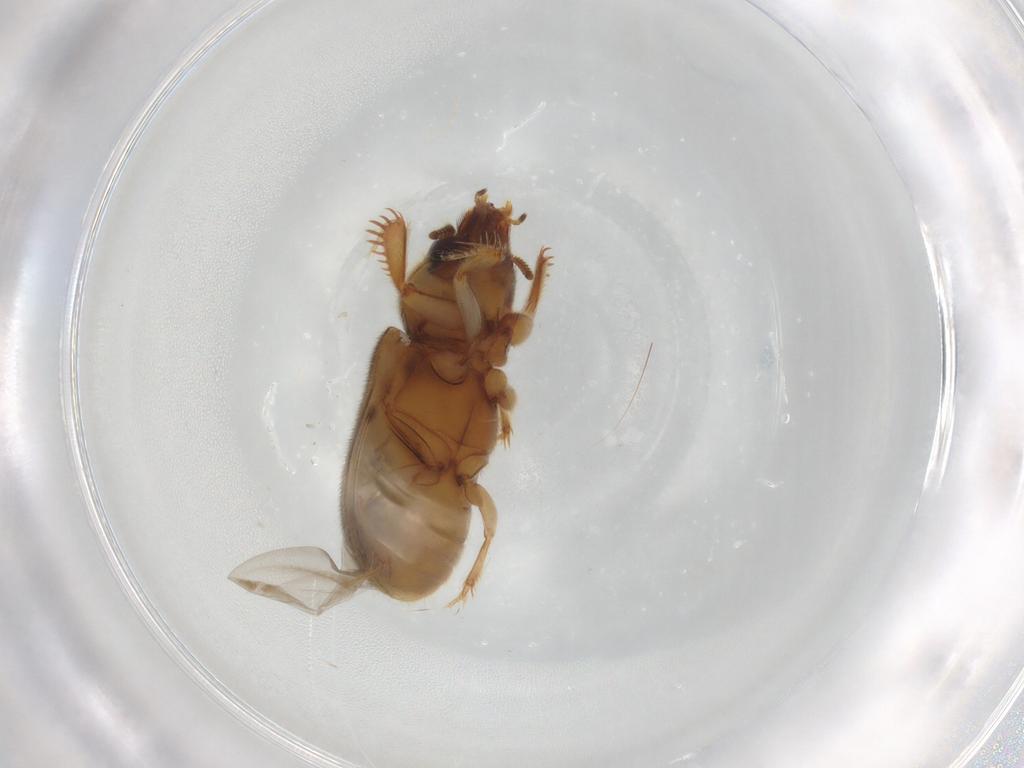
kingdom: Animalia
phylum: Arthropoda
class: Insecta
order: Coleoptera
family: Heteroceridae
